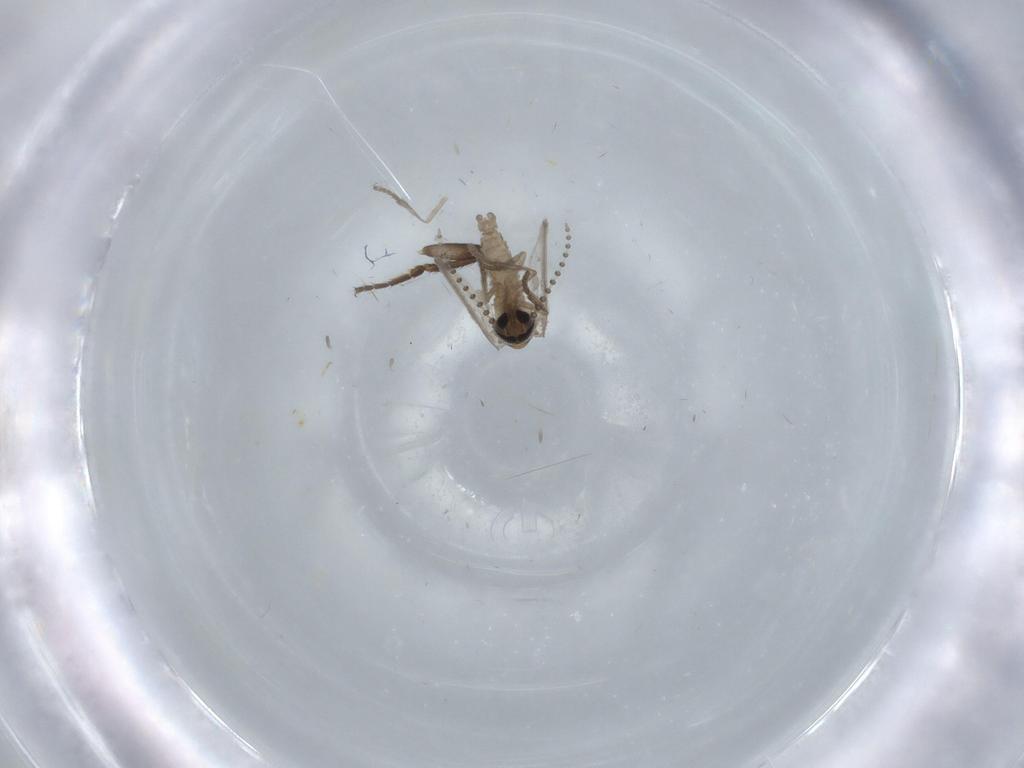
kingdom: Animalia
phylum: Arthropoda
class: Insecta
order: Diptera
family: Psychodidae
